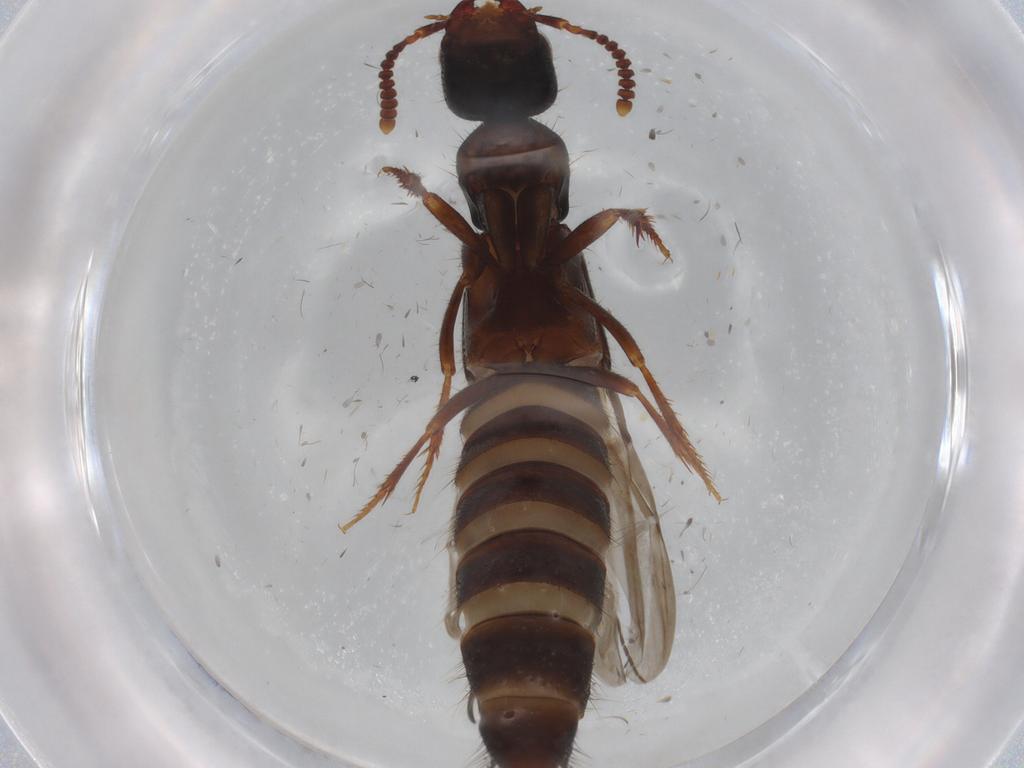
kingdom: Animalia
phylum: Arthropoda
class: Insecta
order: Coleoptera
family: Staphylinidae
